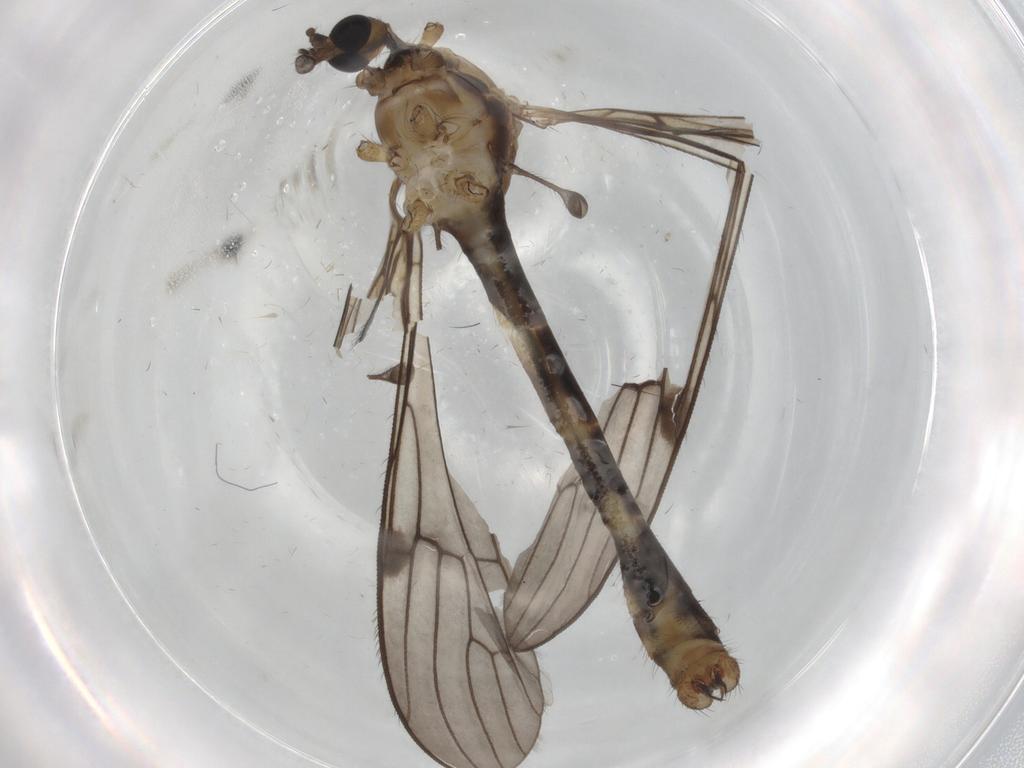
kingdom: Animalia
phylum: Arthropoda
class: Insecta
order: Diptera
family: Limoniidae
